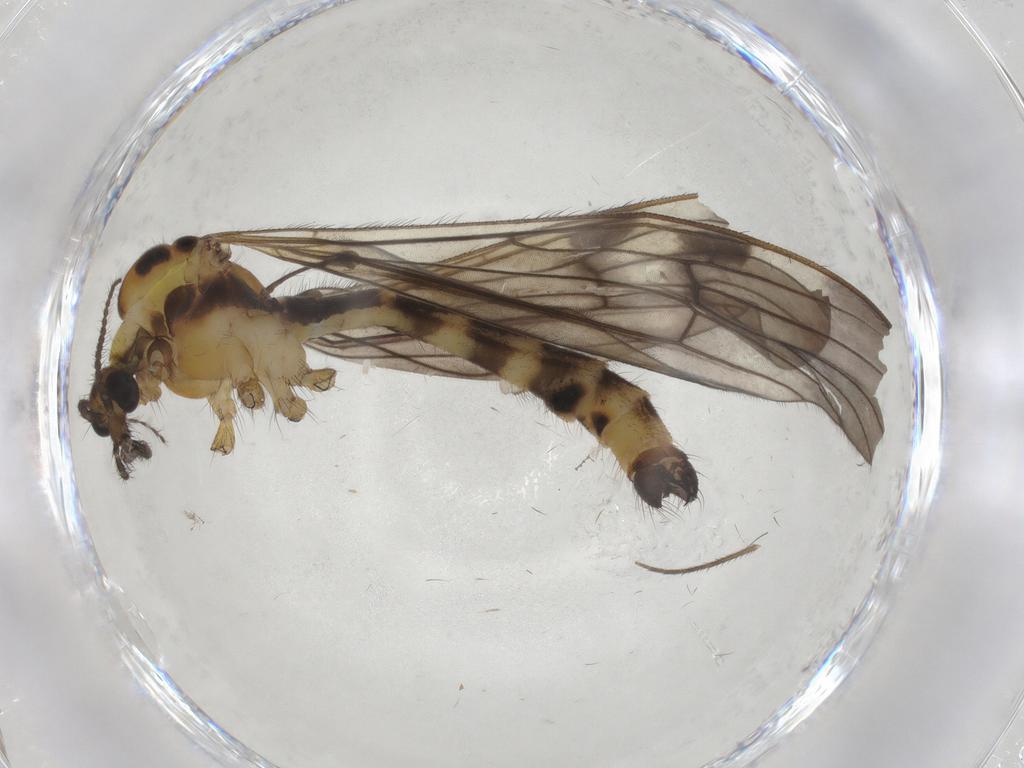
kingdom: Animalia
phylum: Arthropoda
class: Insecta
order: Diptera
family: Chironomidae
